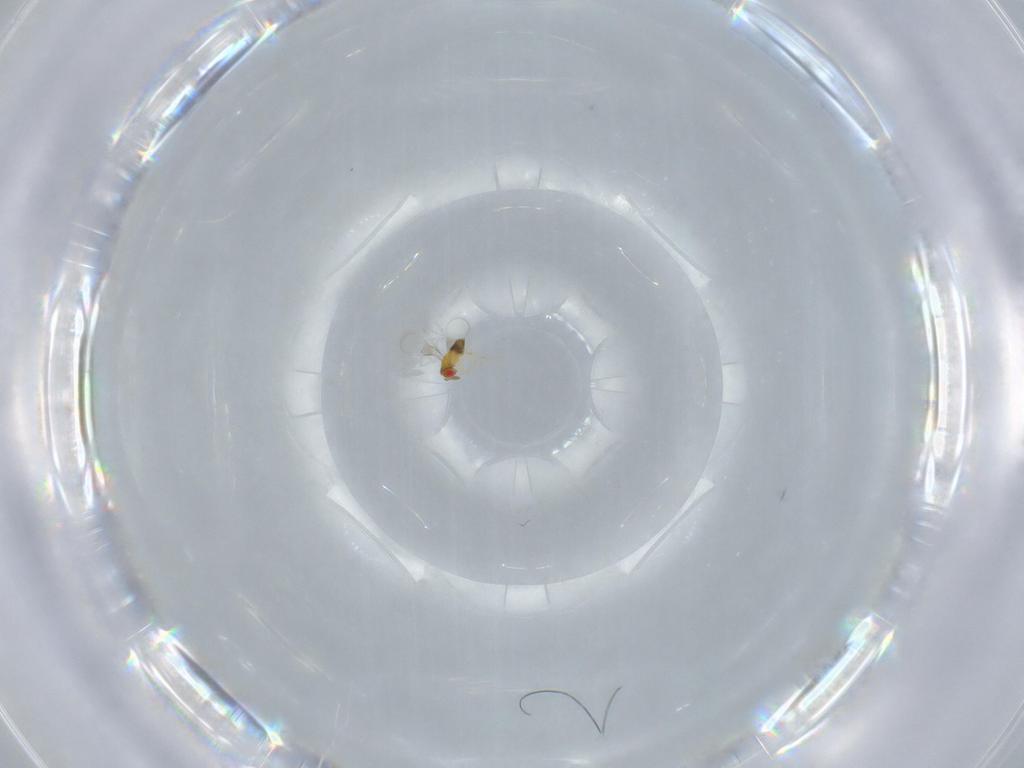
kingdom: Animalia
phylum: Arthropoda
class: Insecta
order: Hymenoptera
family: Trichogrammatidae
